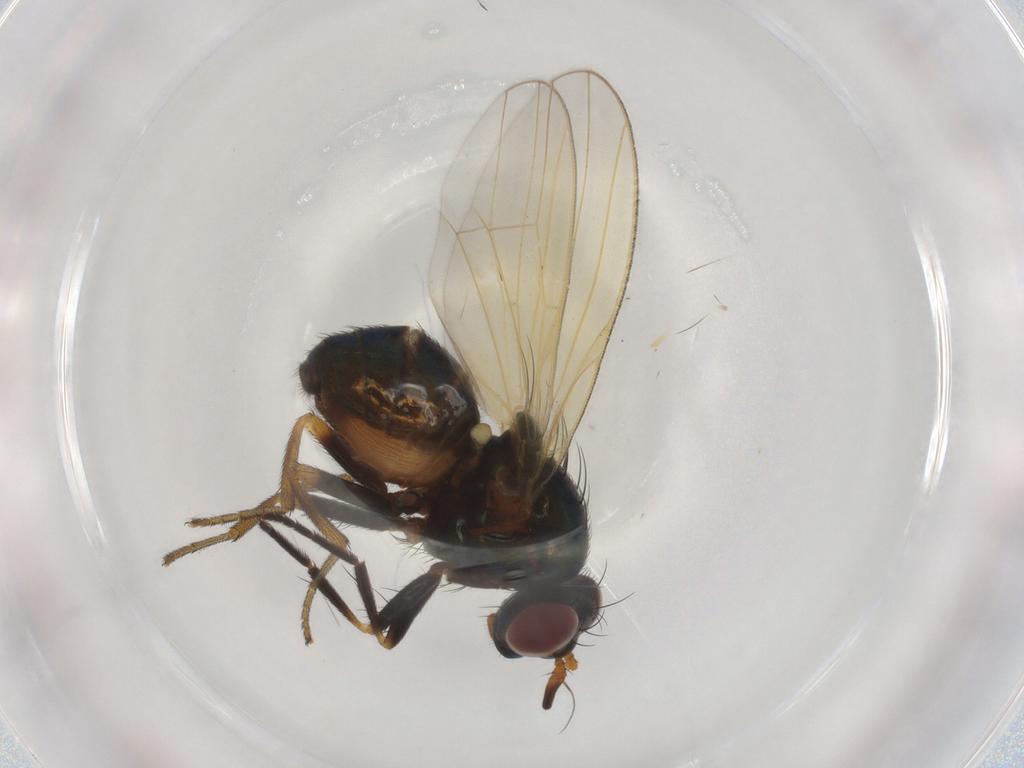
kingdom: Animalia
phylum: Arthropoda
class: Insecta
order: Diptera
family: Lauxaniidae
